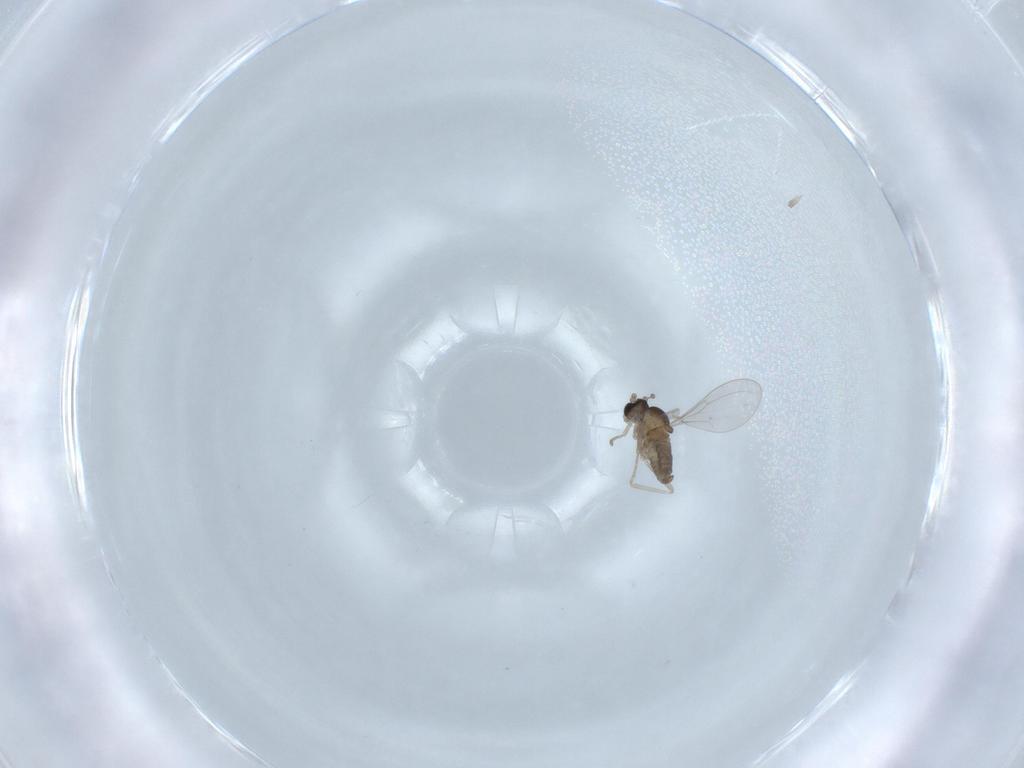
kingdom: Animalia
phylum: Arthropoda
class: Insecta
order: Diptera
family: Cecidomyiidae
